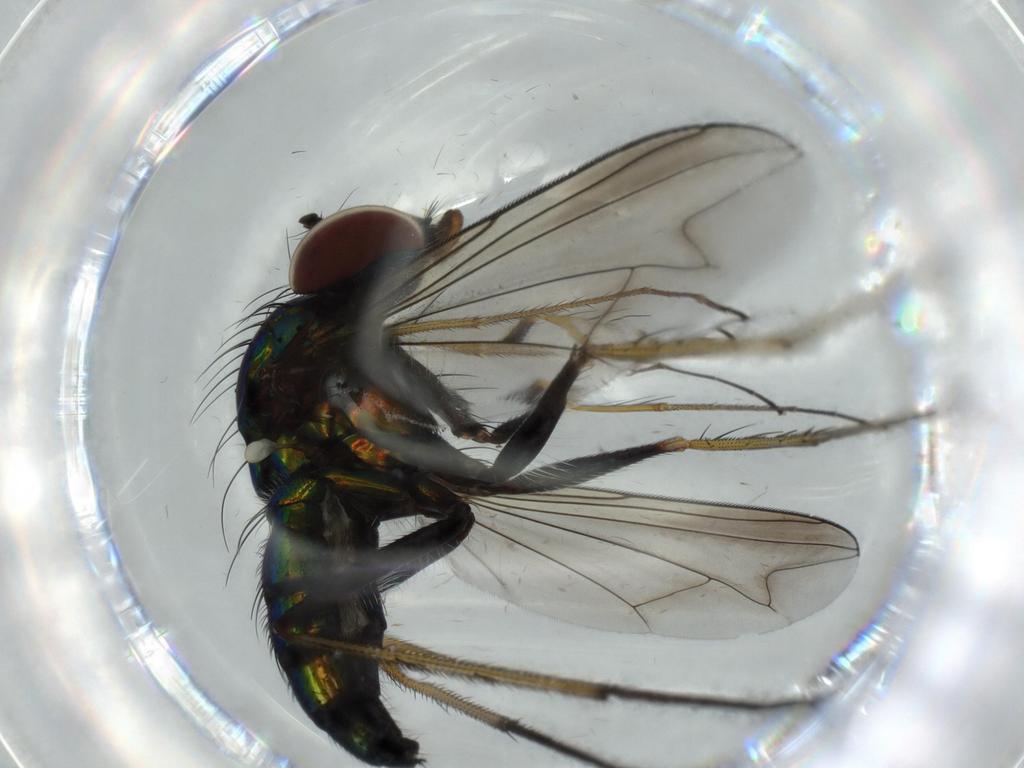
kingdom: Animalia
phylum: Arthropoda
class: Insecta
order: Diptera
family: Dolichopodidae
